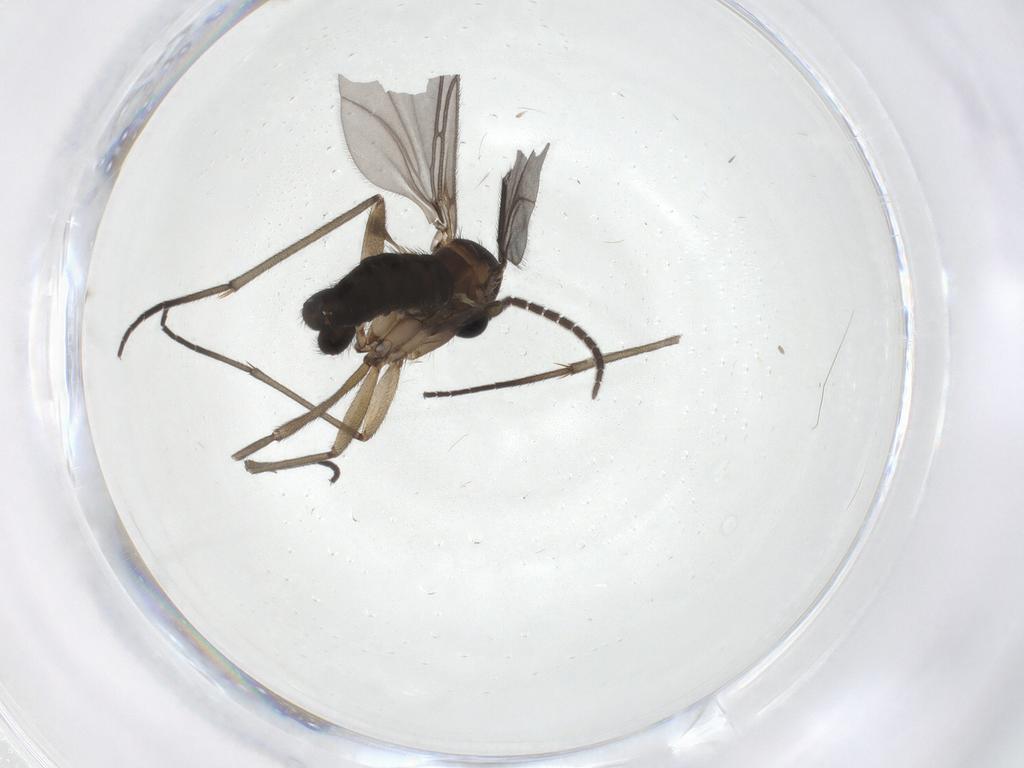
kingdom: Animalia
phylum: Arthropoda
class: Insecta
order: Diptera
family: Sciaridae
